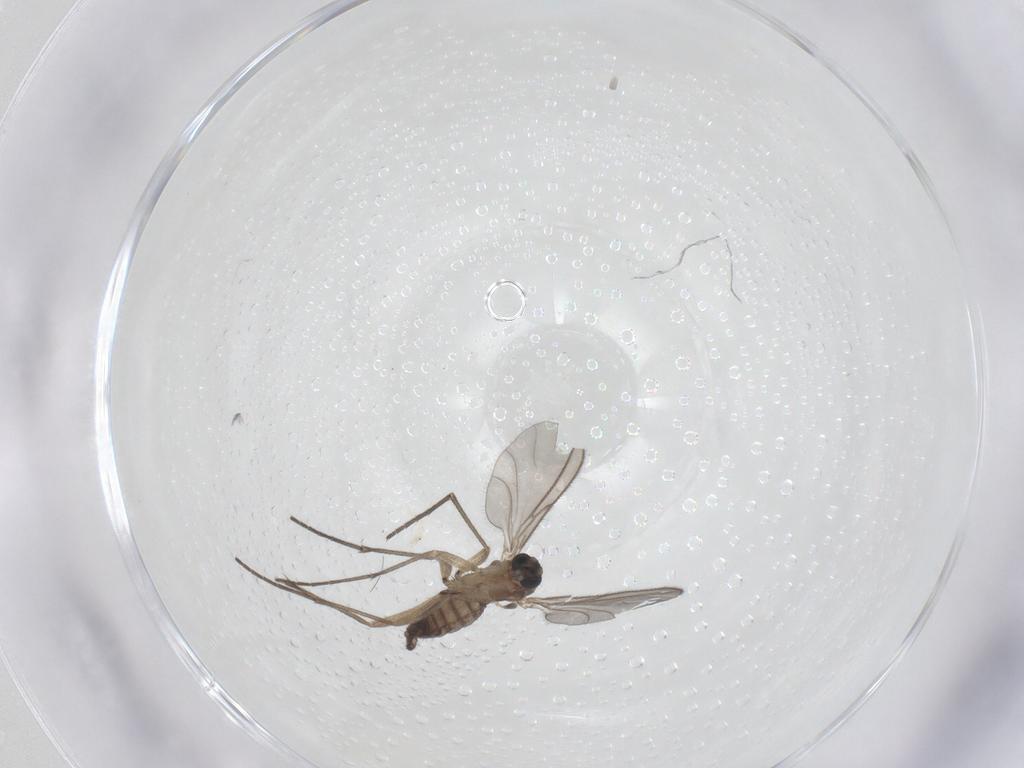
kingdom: Animalia
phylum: Arthropoda
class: Insecta
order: Diptera
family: Sciaridae
